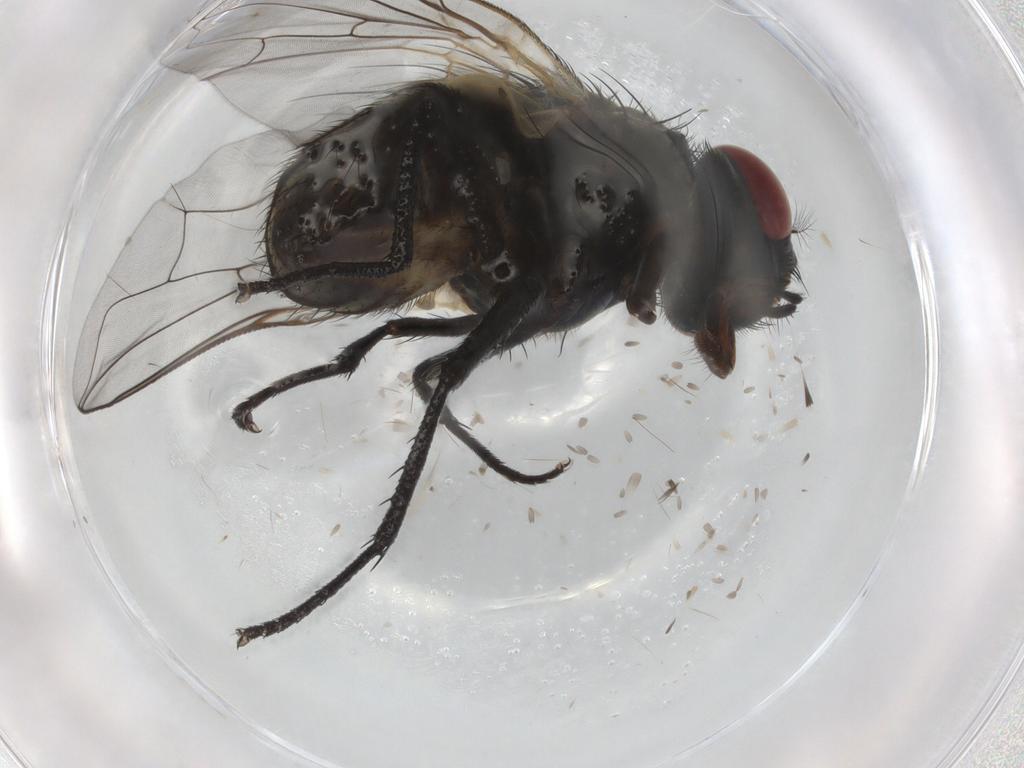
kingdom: Animalia
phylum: Arthropoda
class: Insecta
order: Diptera
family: Muscidae
